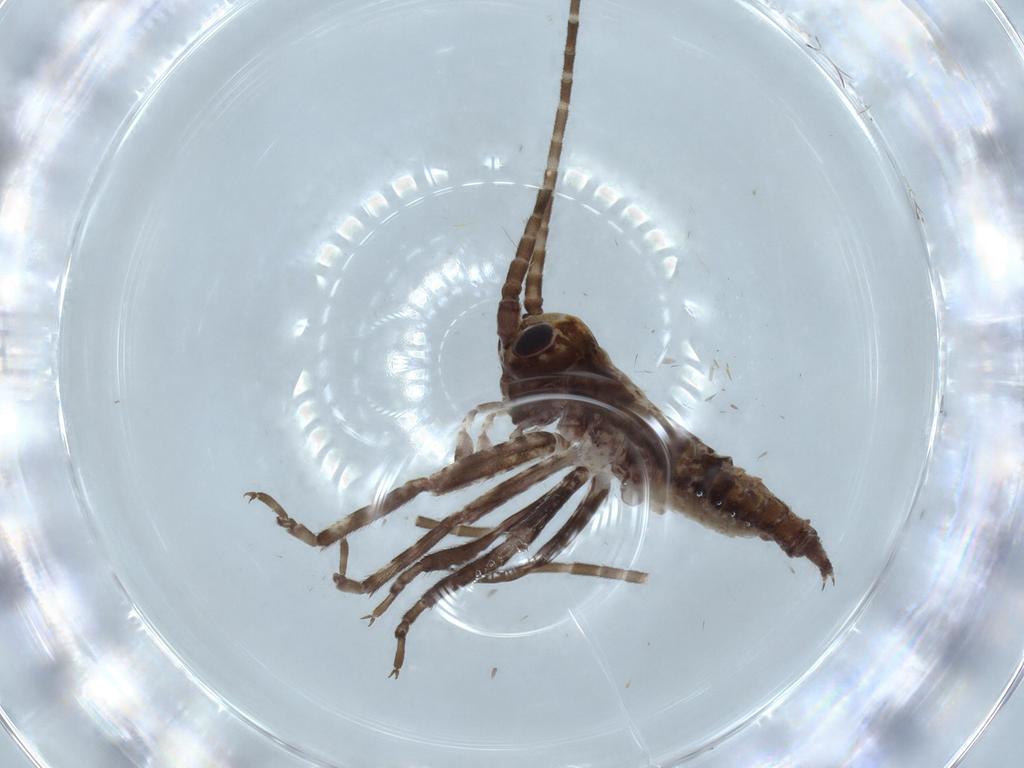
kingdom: Animalia
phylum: Arthropoda
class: Insecta
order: Orthoptera
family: Gryllidae
